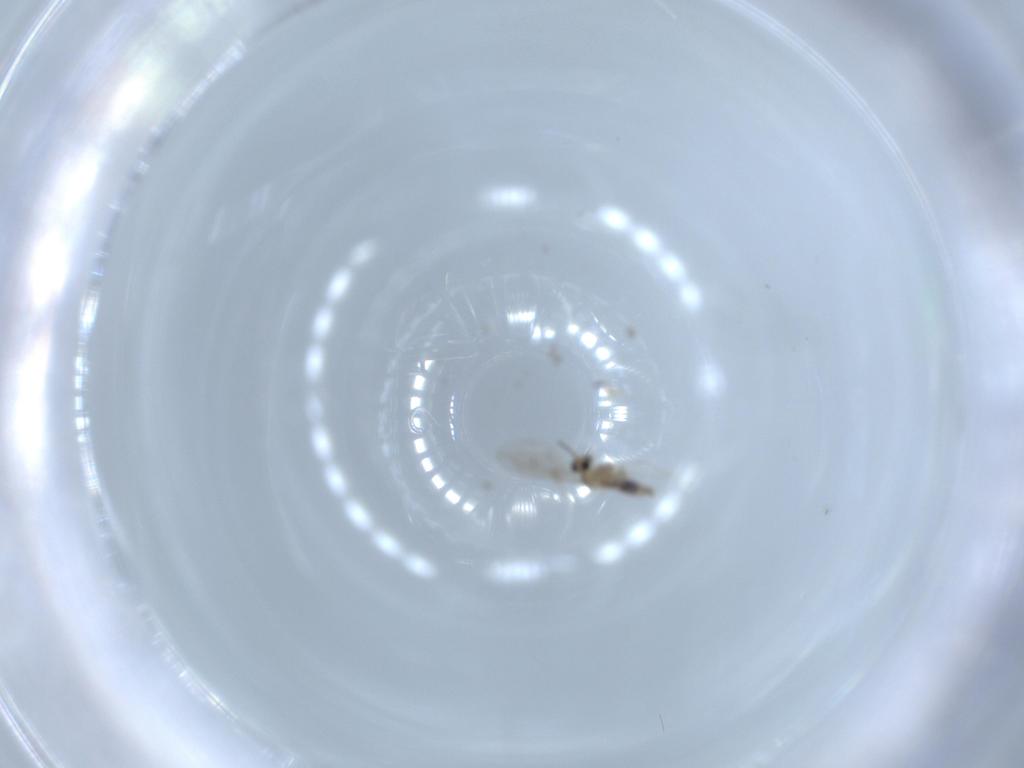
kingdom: Animalia
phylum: Arthropoda
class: Insecta
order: Diptera
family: Cecidomyiidae
